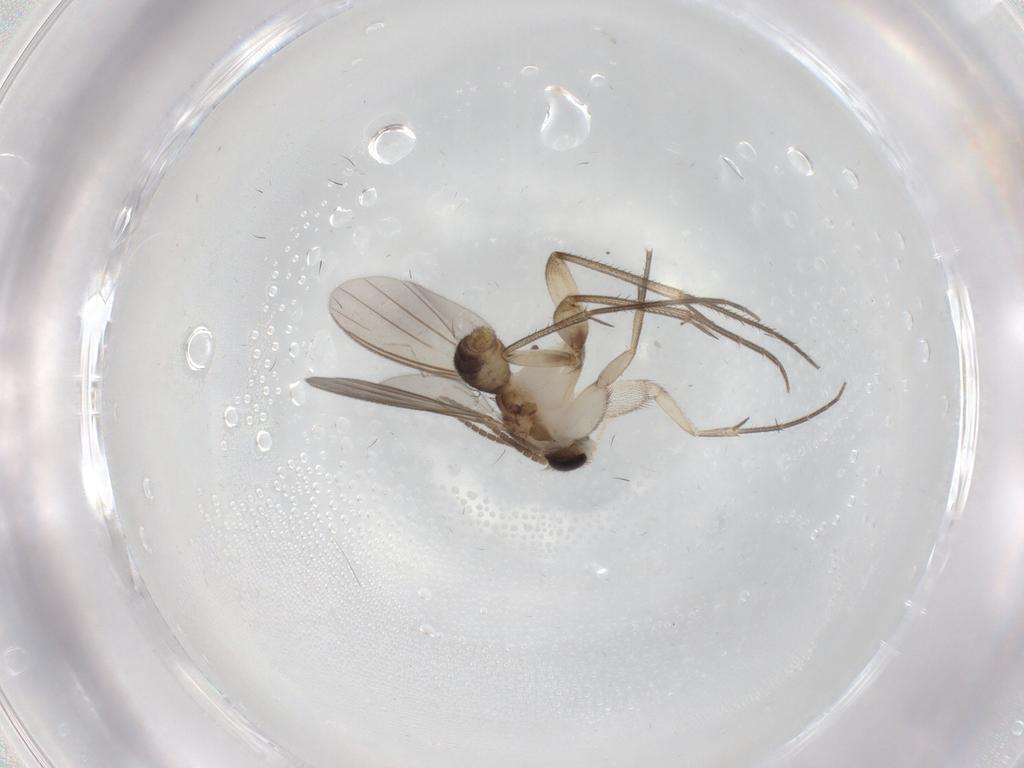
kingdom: Animalia
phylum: Arthropoda
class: Insecta
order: Diptera
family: Mycetophilidae
